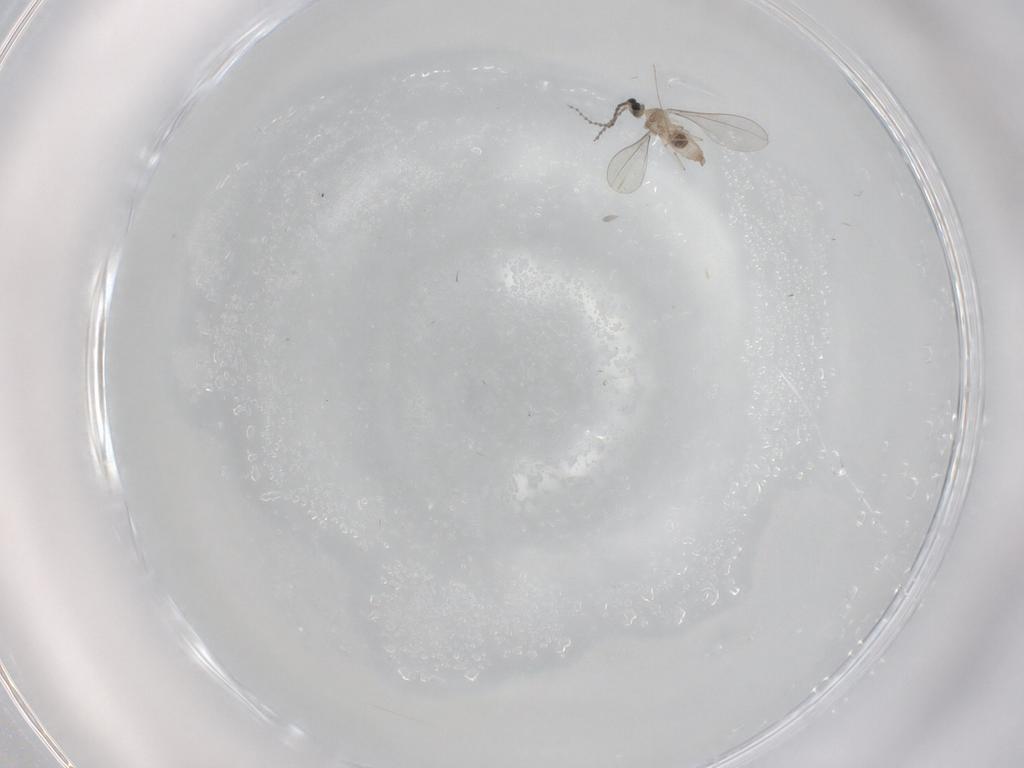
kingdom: Animalia
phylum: Arthropoda
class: Insecta
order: Diptera
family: Cecidomyiidae
